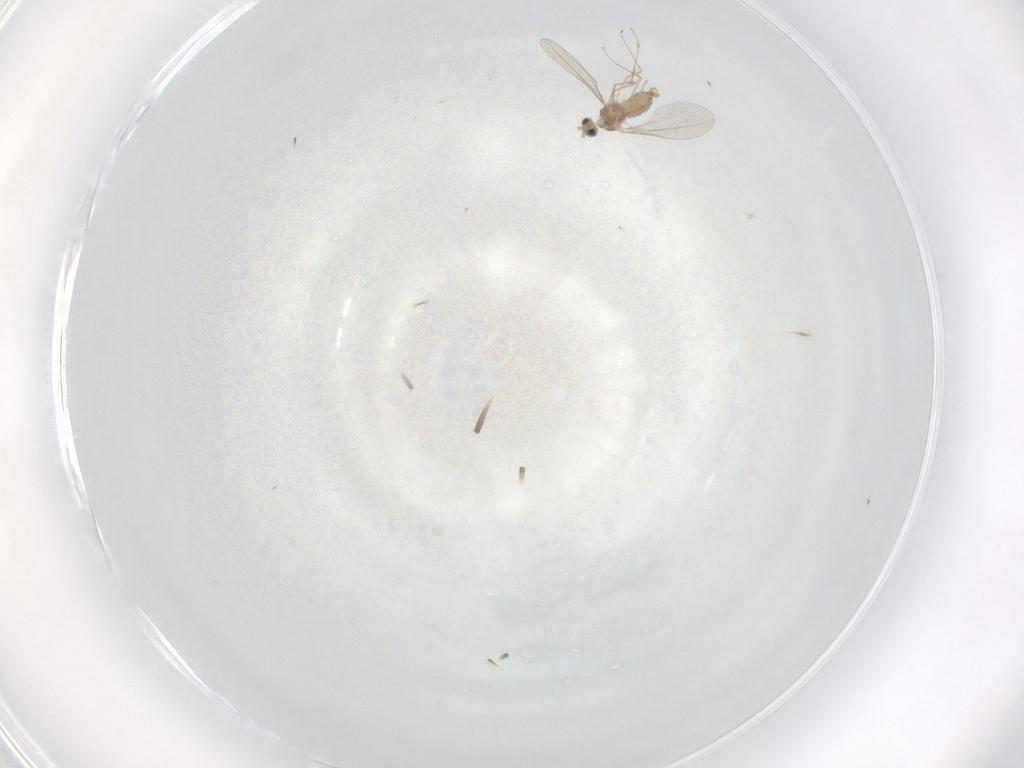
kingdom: Animalia
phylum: Arthropoda
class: Insecta
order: Diptera
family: Cecidomyiidae
